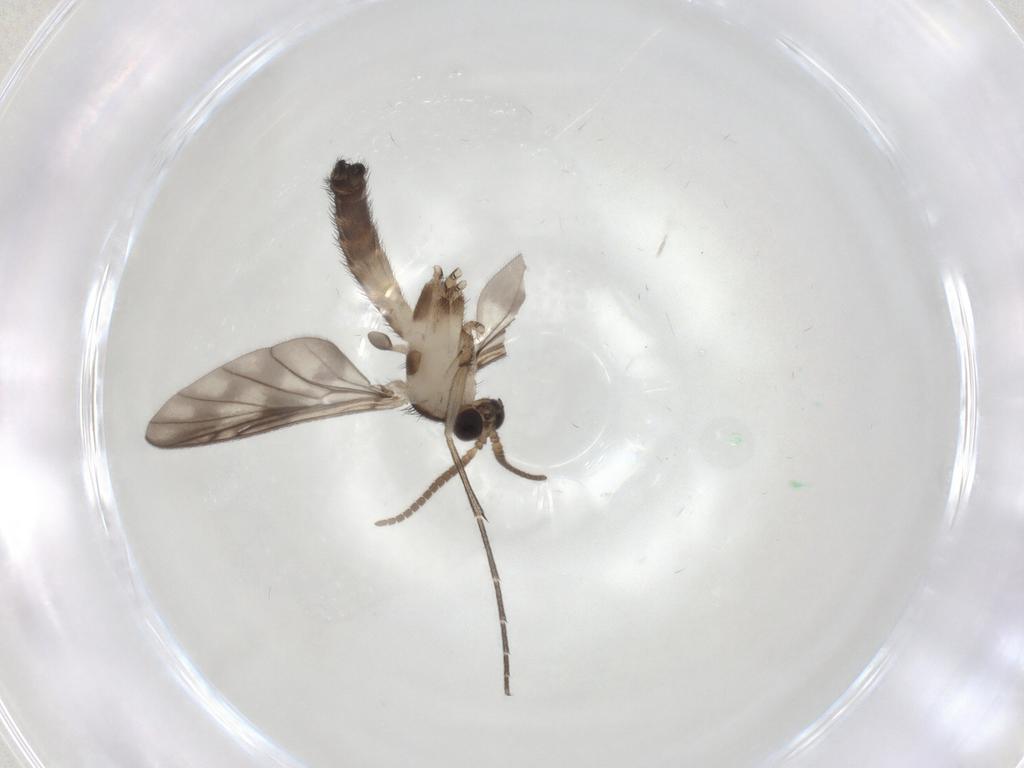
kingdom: Animalia
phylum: Arthropoda
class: Insecta
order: Diptera
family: Keroplatidae
